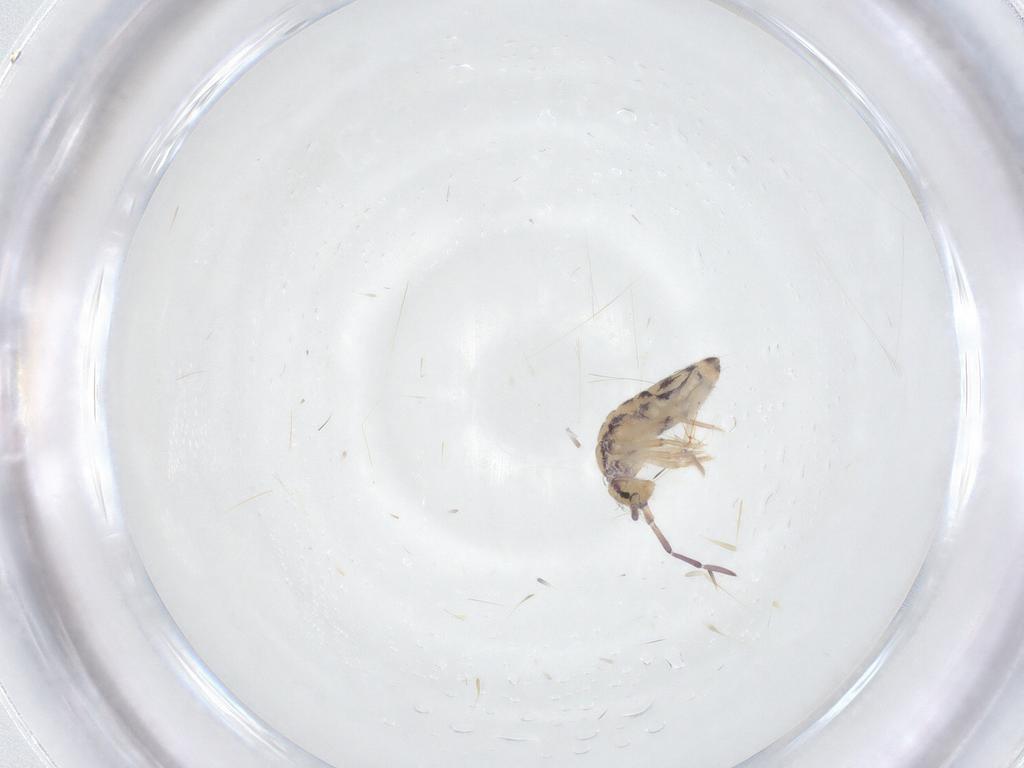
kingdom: Animalia
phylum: Arthropoda
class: Collembola
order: Entomobryomorpha
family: Entomobryidae
